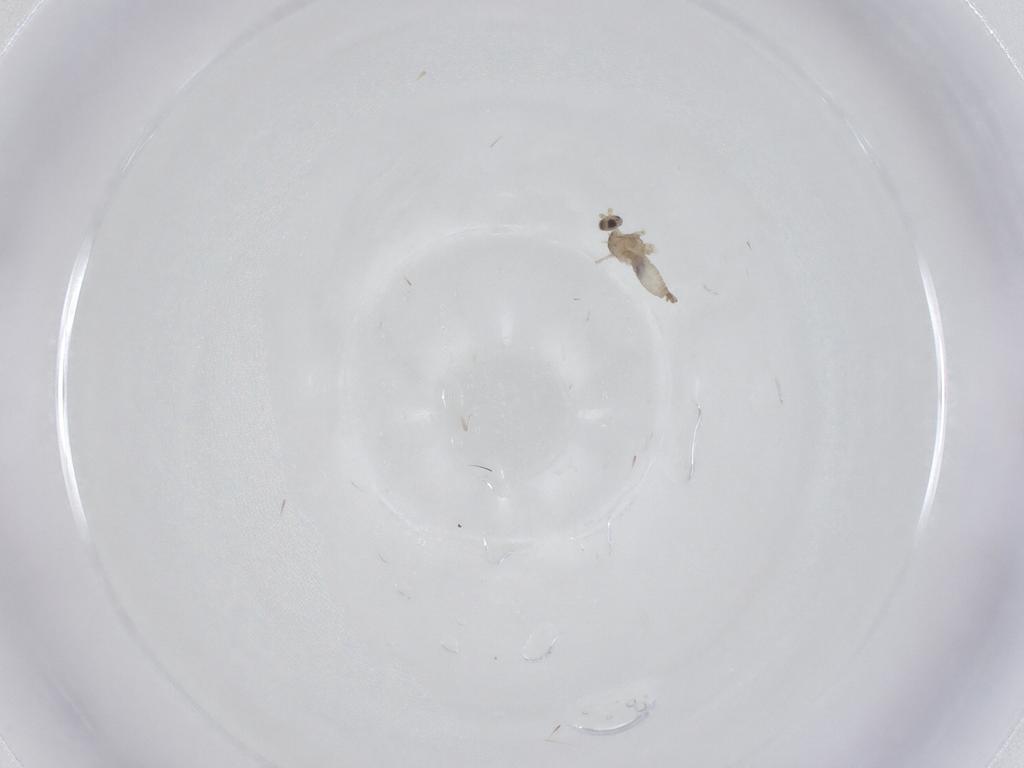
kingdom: Animalia
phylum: Arthropoda
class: Insecta
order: Diptera
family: Cecidomyiidae
